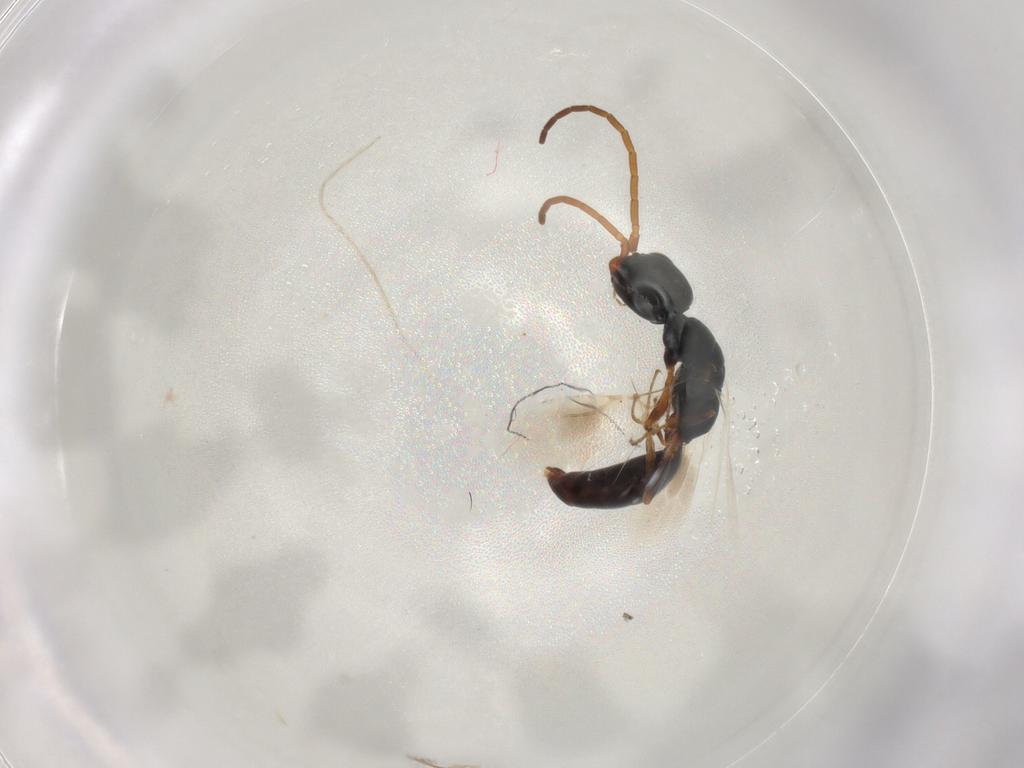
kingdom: Animalia
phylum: Arthropoda
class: Insecta
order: Hymenoptera
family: Bethylidae
